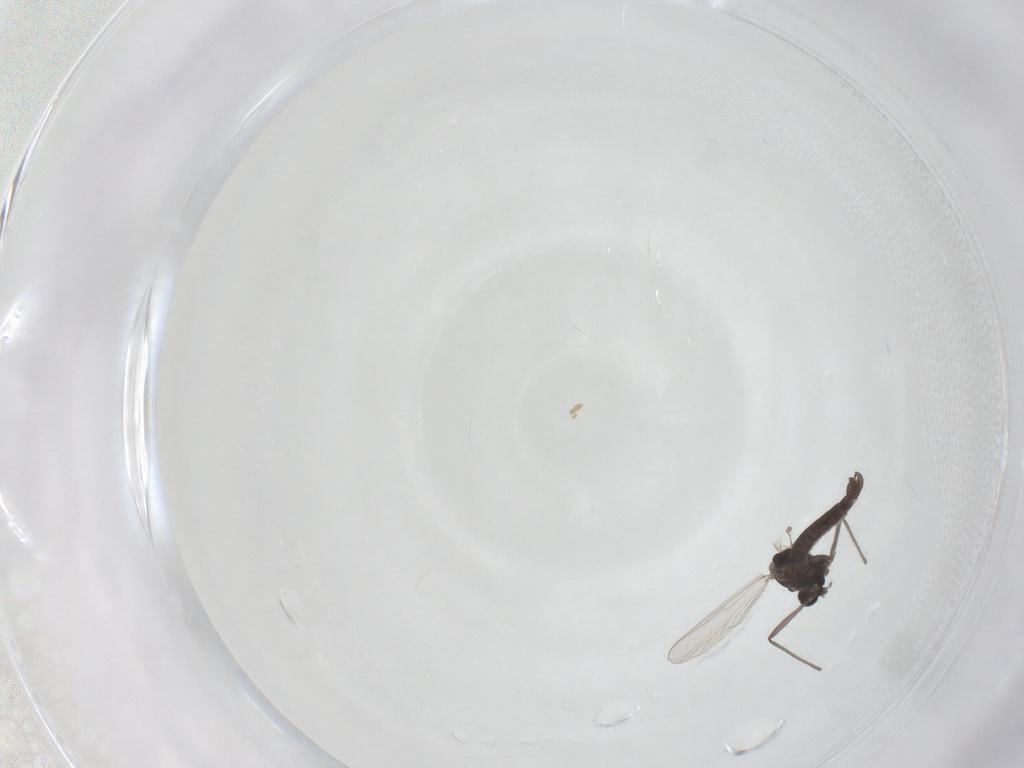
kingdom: Animalia
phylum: Arthropoda
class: Insecta
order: Diptera
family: Chironomidae
